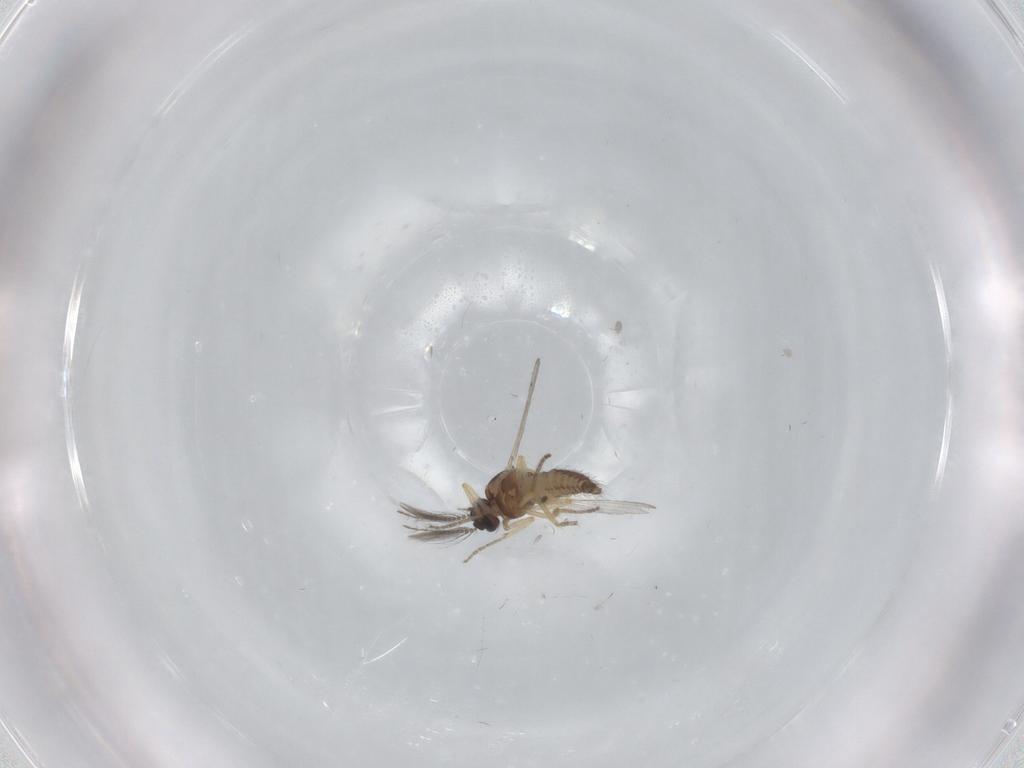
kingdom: Animalia
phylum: Arthropoda
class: Insecta
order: Diptera
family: Ceratopogonidae
